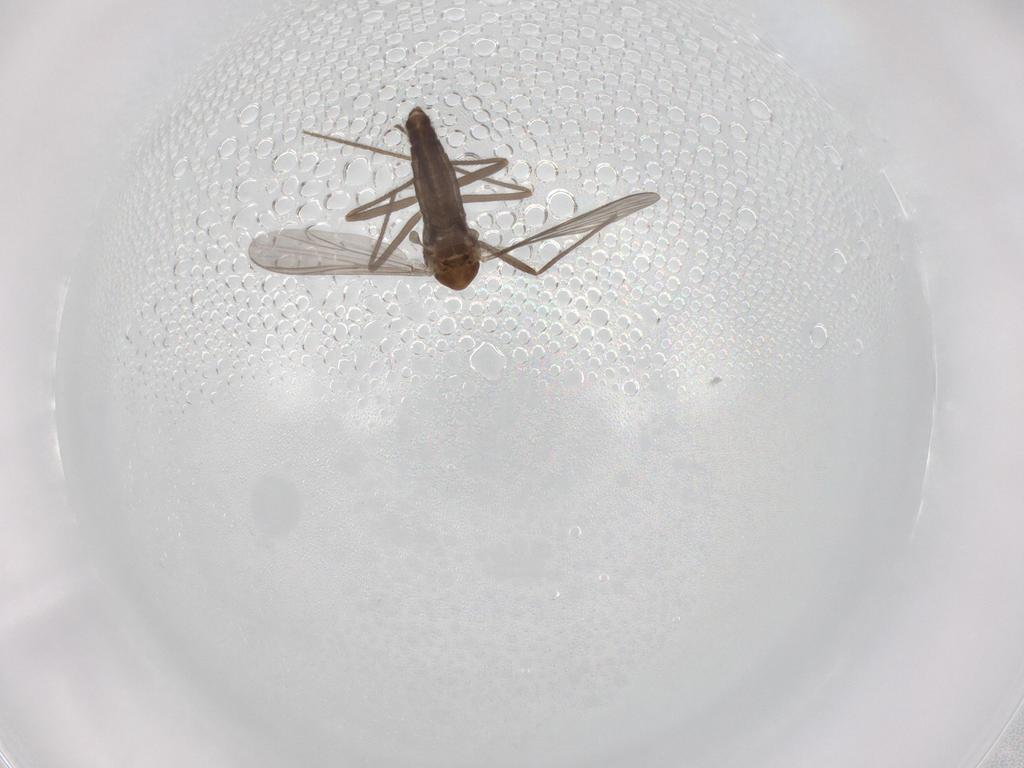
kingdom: Animalia
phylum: Arthropoda
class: Insecta
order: Diptera
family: Chironomidae
